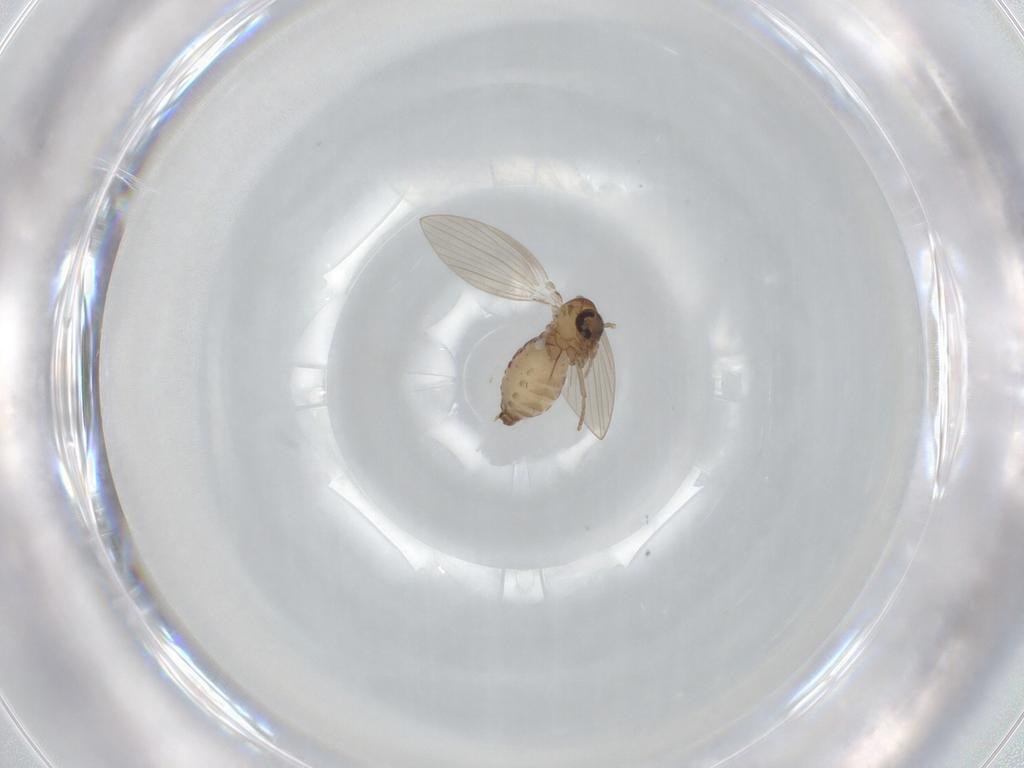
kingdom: Animalia
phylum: Arthropoda
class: Insecta
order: Diptera
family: Psychodidae
